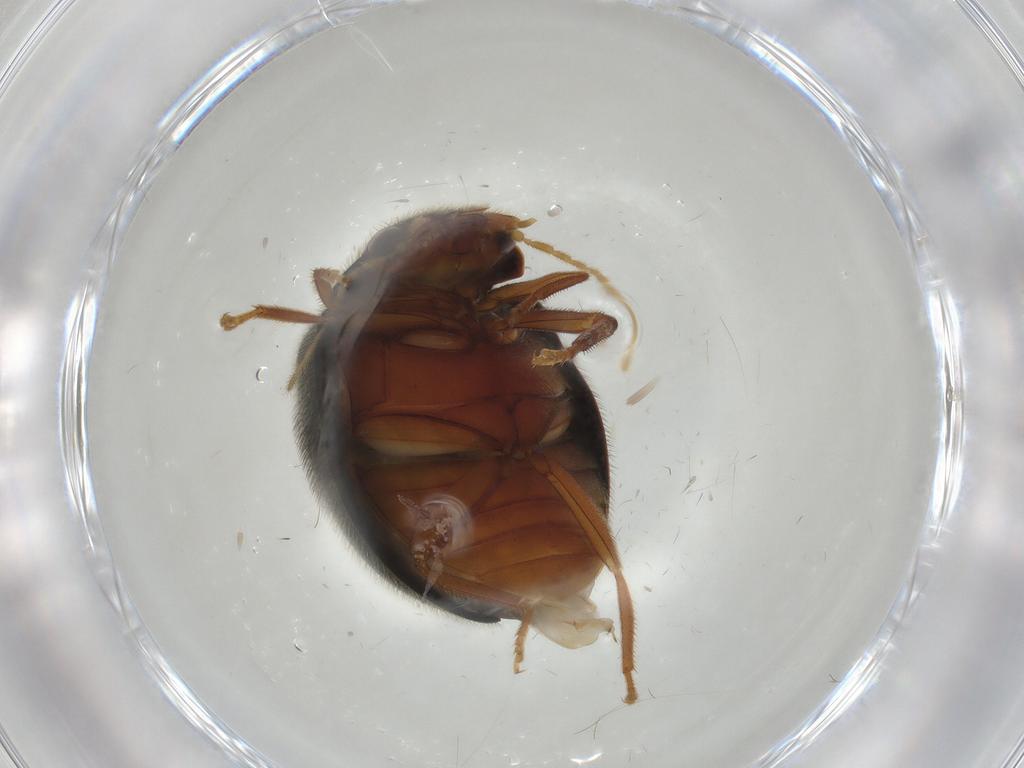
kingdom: Animalia
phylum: Arthropoda
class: Insecta
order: Coleoptera
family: Scirtidae
